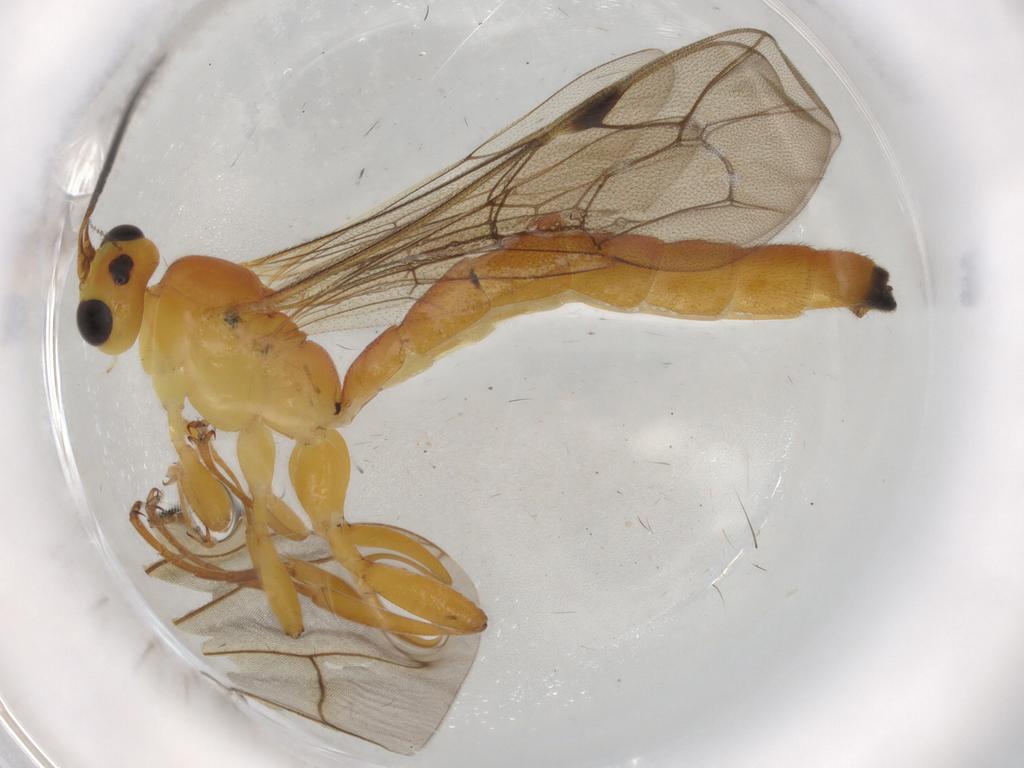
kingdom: Animalia
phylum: Arthropoda
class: Insecta
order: Hymenoptera
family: Ichneumonidae
